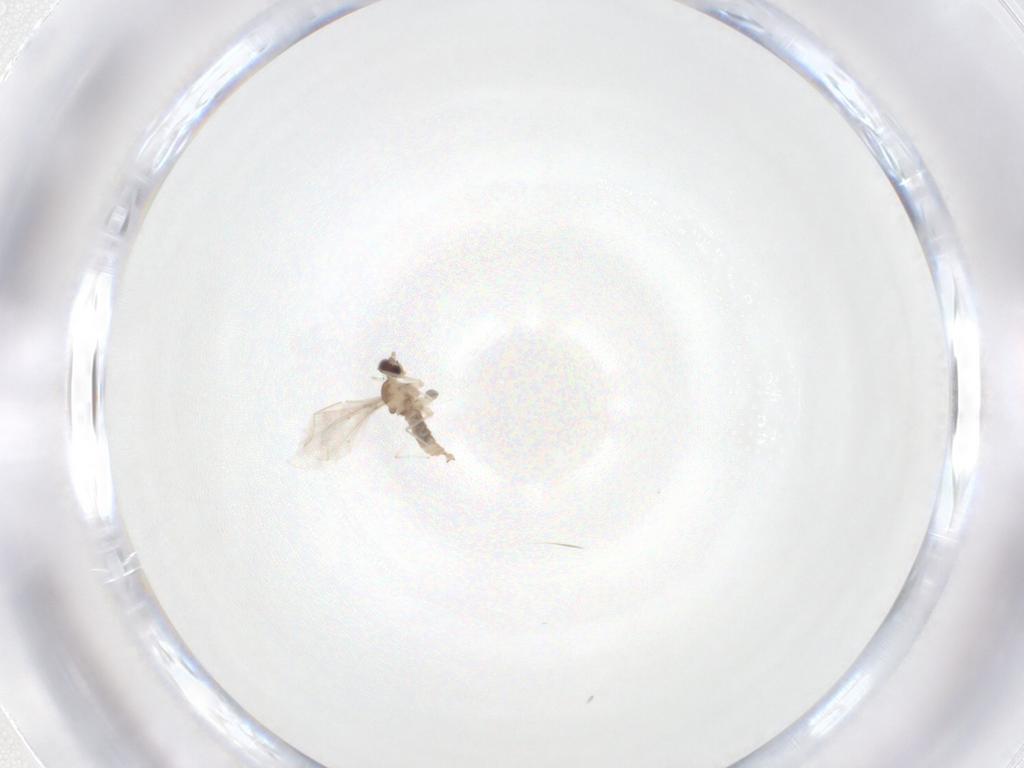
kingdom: Animalia
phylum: Arthropoda
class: Insecta
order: Diptera
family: Cecidomyiidae
